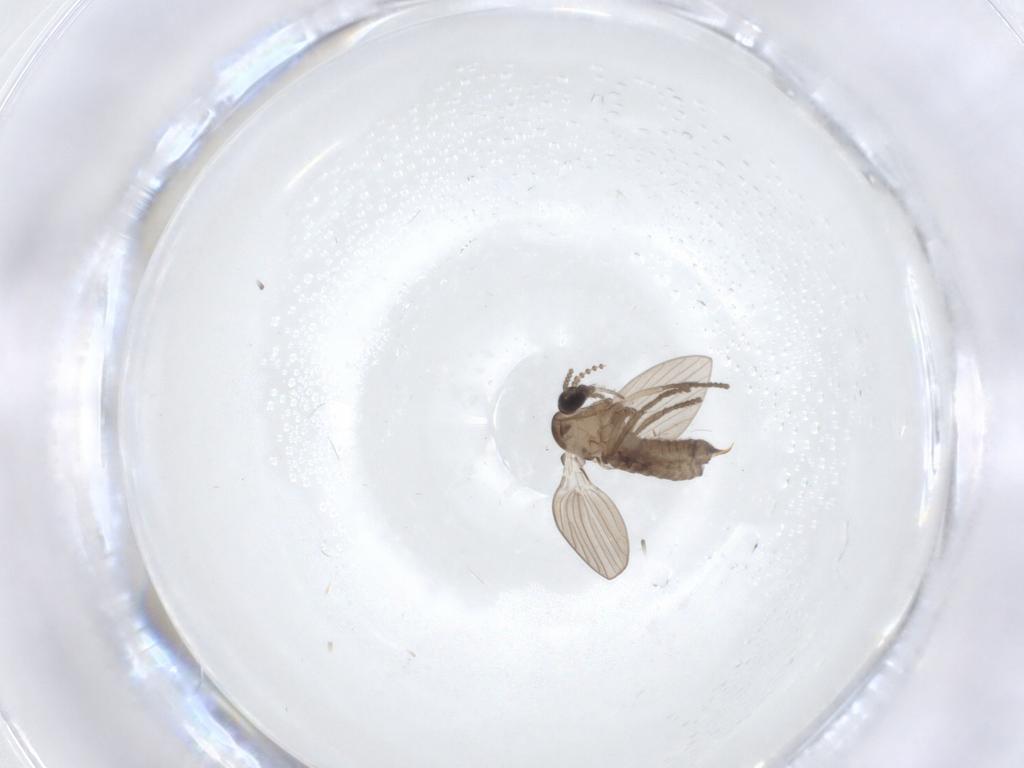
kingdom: Animalia
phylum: Arthropoda
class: Insecta
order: Diptera
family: Psychodidae
